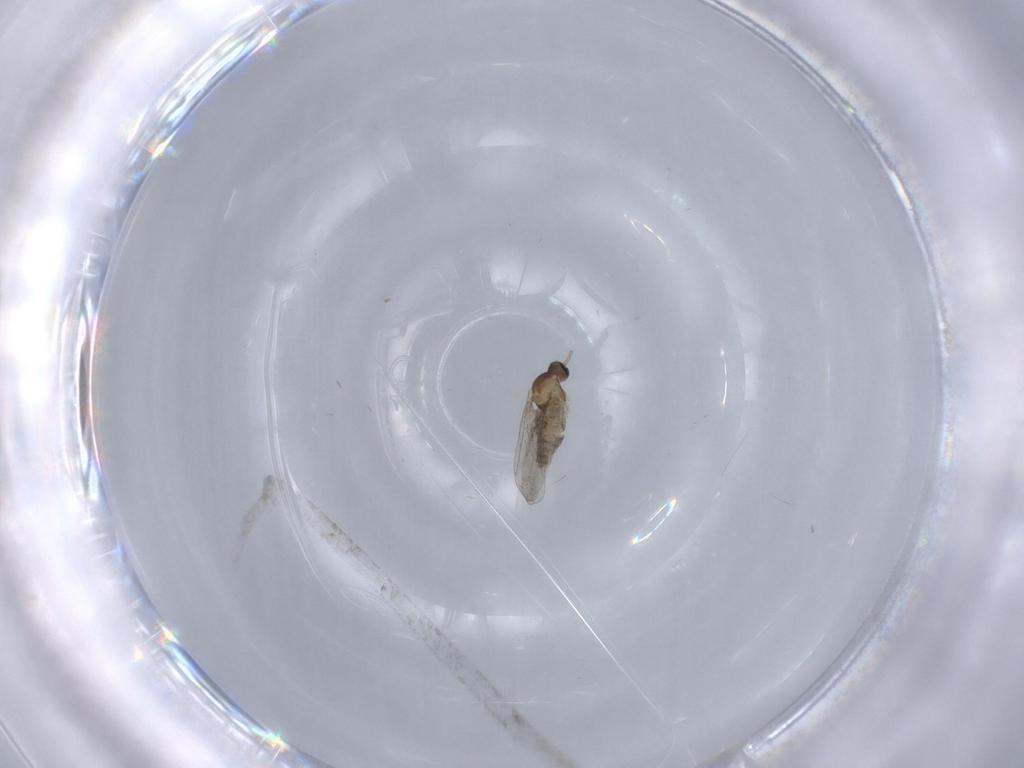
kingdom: Animalia
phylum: Arthropoda
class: Insecta
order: Diptera
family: Cecidomyiidae
